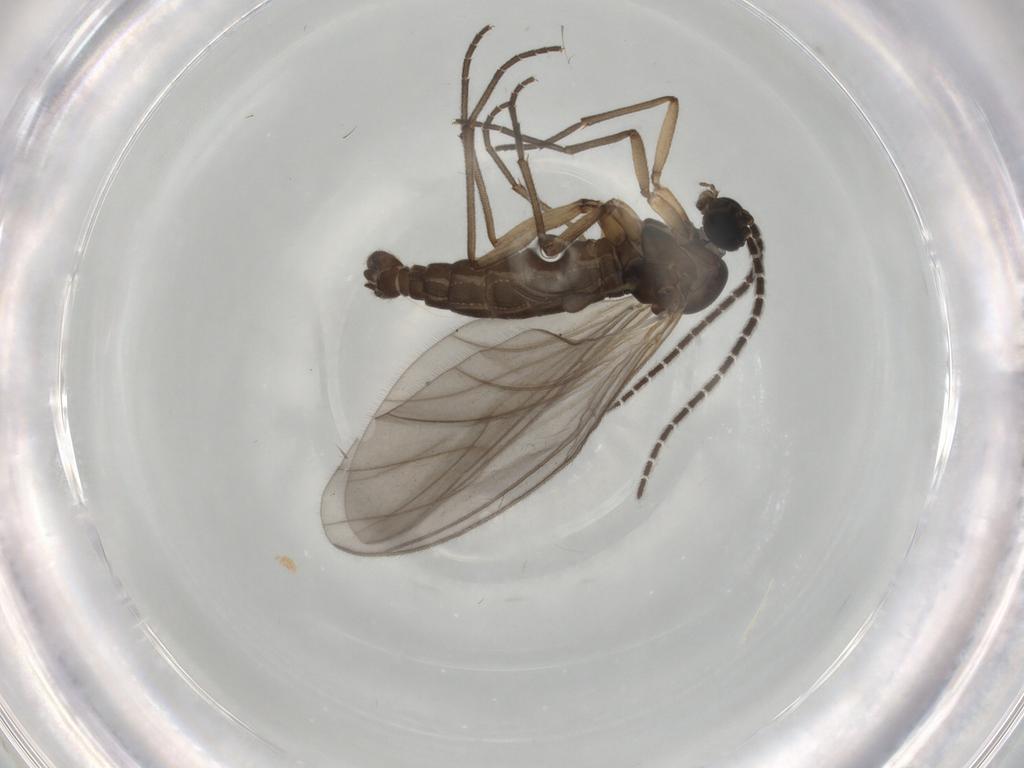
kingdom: Animalia
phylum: Arthropoda
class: Insecta
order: Diptera
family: Sciaridae
